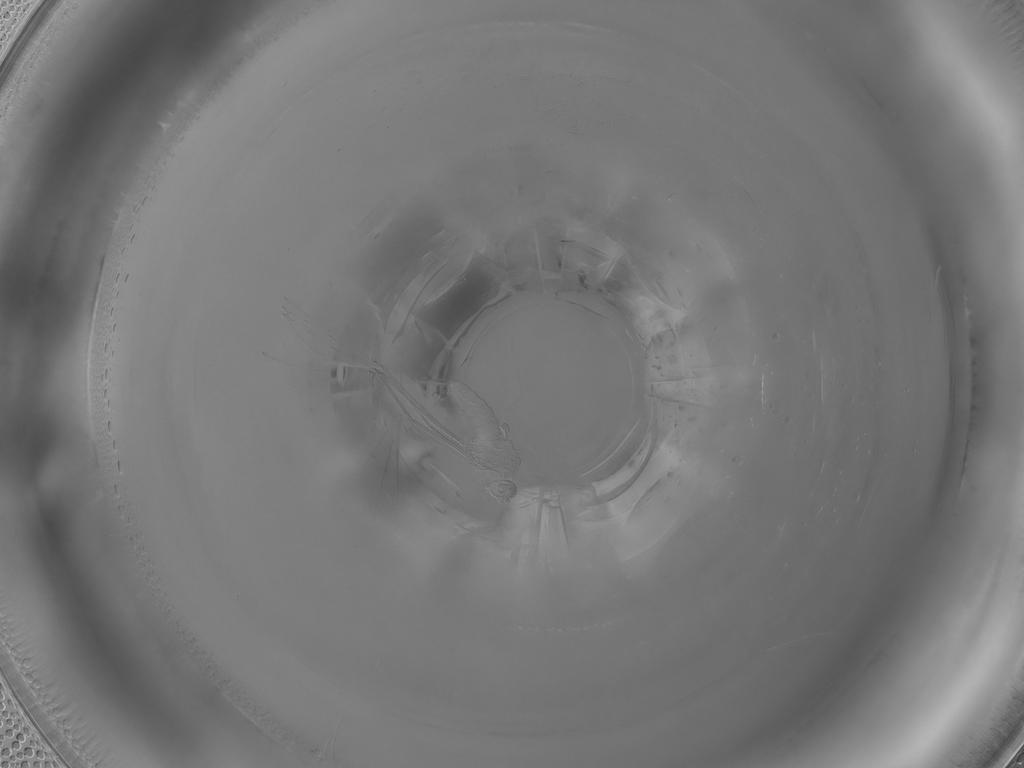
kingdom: Animalia
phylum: Arthropoda
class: Insecta
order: Diptera
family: Cecidomyiidae
